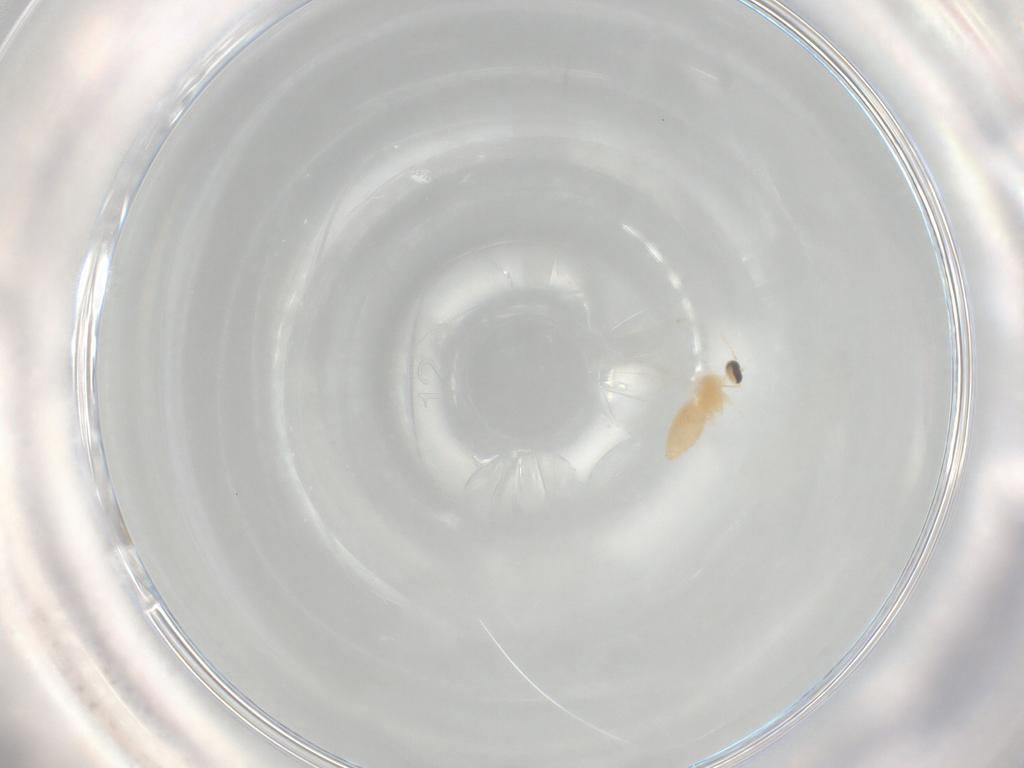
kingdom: Animalia
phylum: Arthropoda
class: Insecta
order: Diptera
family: Cecidomyiidae
